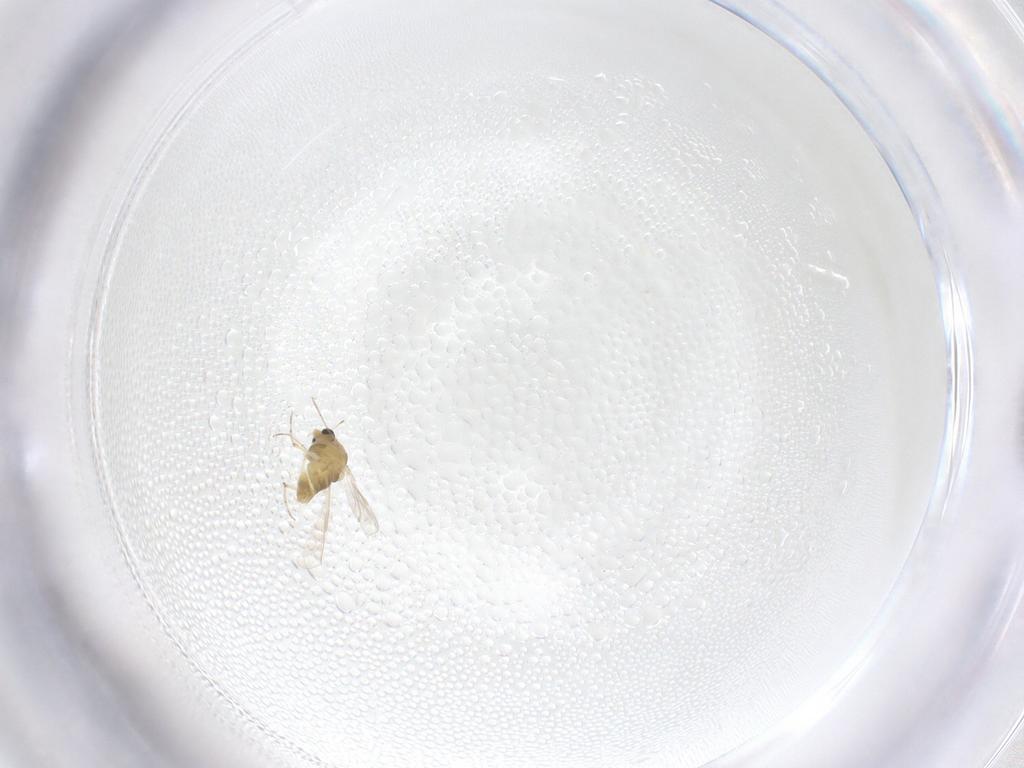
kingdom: Animalia
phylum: Arthropoda
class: Insecta
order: Diptera
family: Chironomidae
